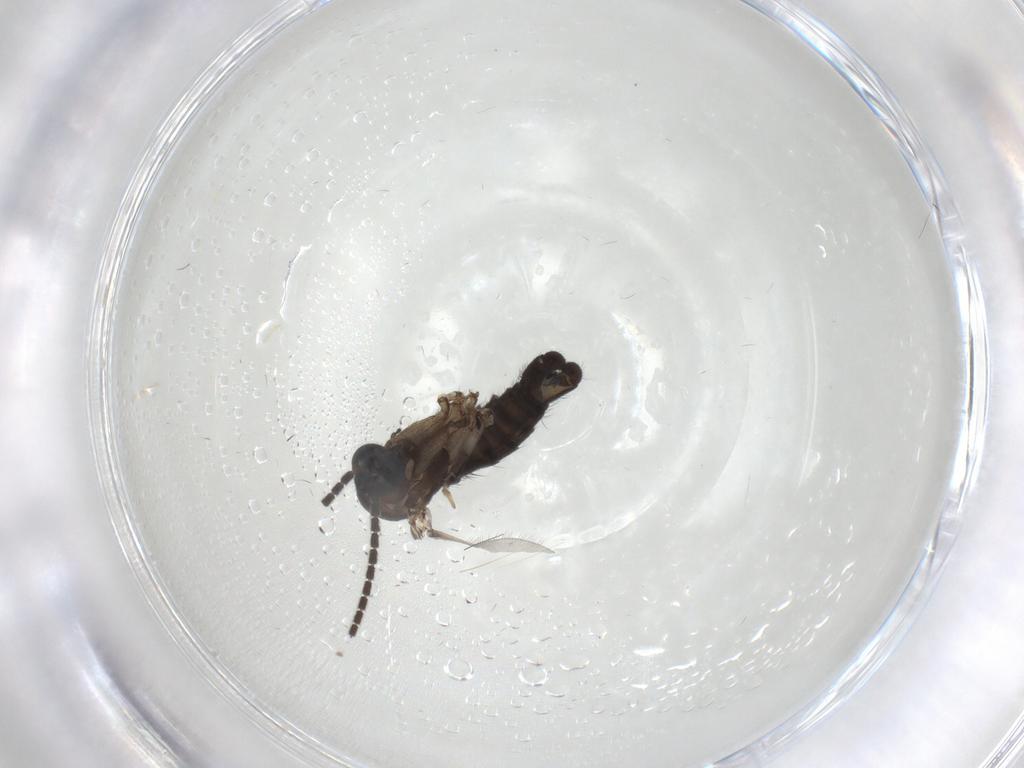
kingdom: Animalia
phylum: Arthropoda
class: Insecta
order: Diptera
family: Sciaridae
